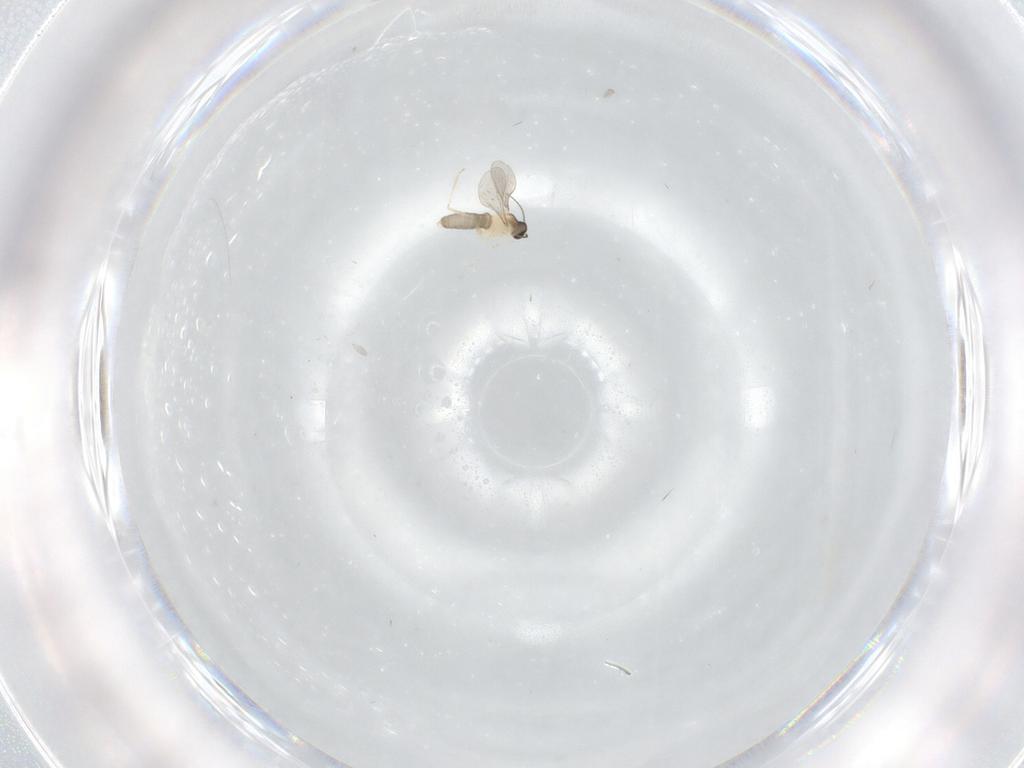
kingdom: Animalia
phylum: Arthropoda
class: Insecta
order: Diptera
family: Cecidomyiidae
